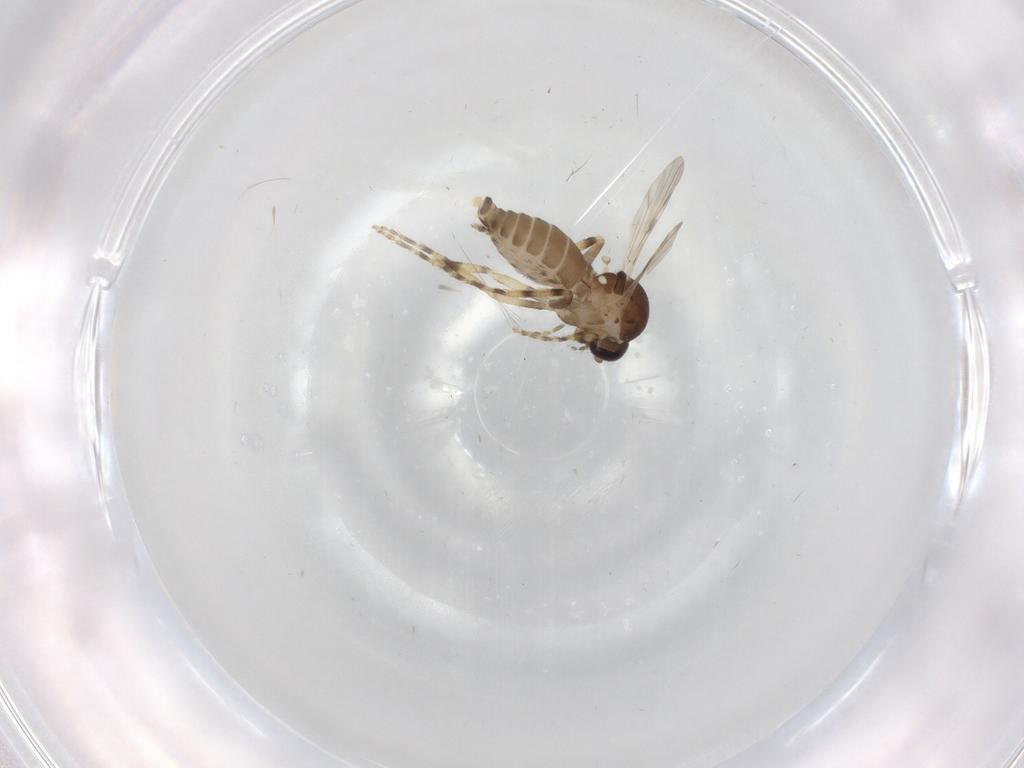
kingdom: Animalia
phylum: Arthropoda
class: Insecta
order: Diptera
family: Ceratopogonidae
